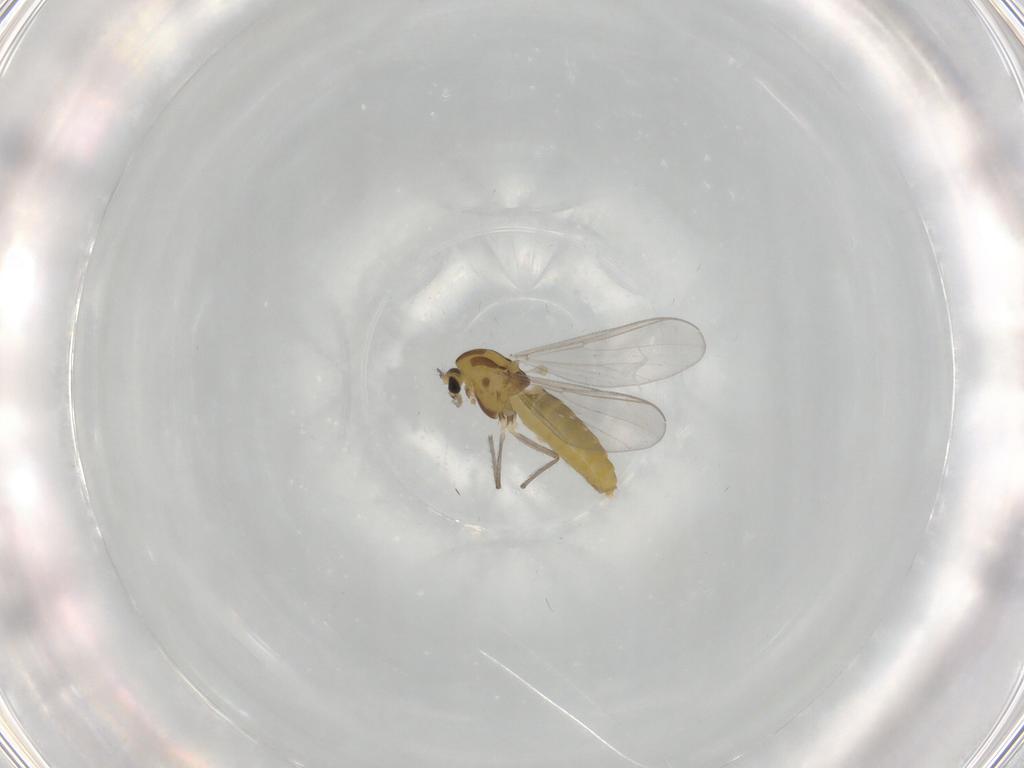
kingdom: Animalia
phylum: Arthropoda
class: Insecta
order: Diptera
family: Chironomidae
